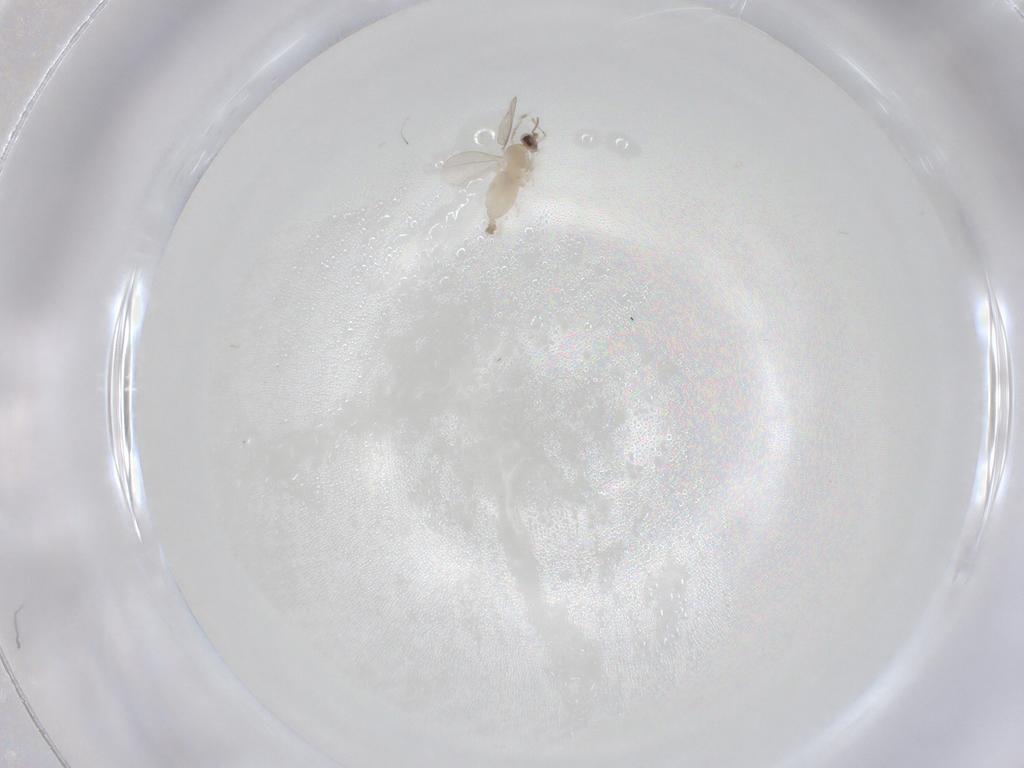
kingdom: Animalia
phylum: Arthropoda
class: Insecta
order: Diptera
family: Cecidomyiidae
